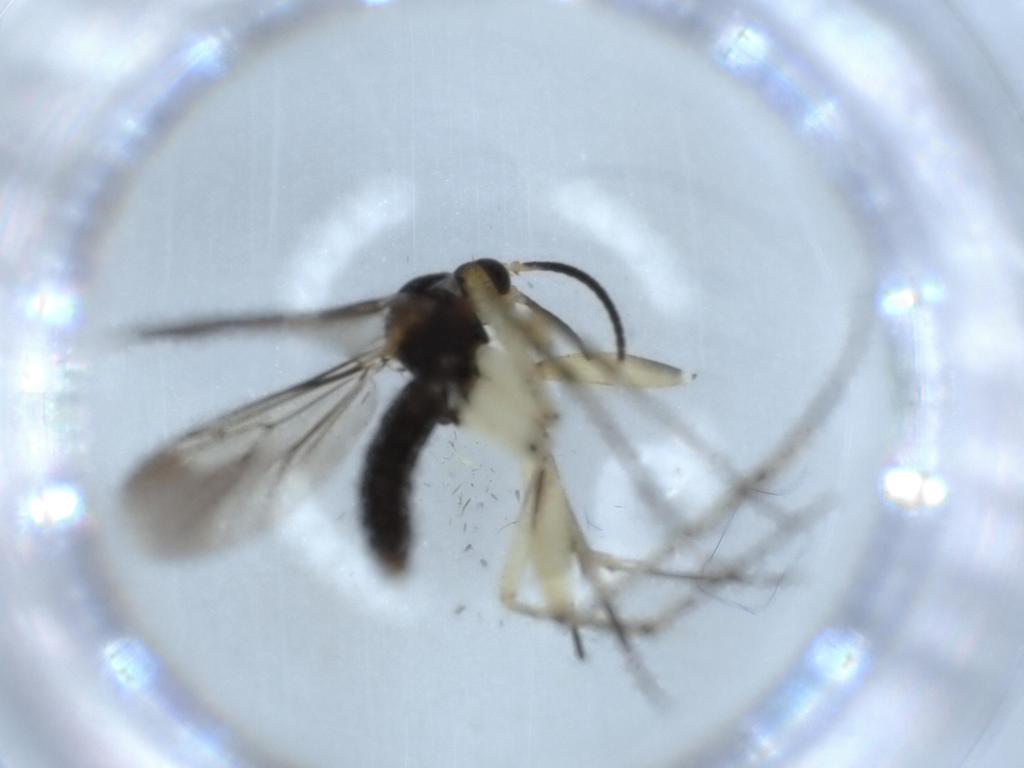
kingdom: Animalia
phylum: Arthropoda
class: Insecta
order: Diptera
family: Mycetophilidae
